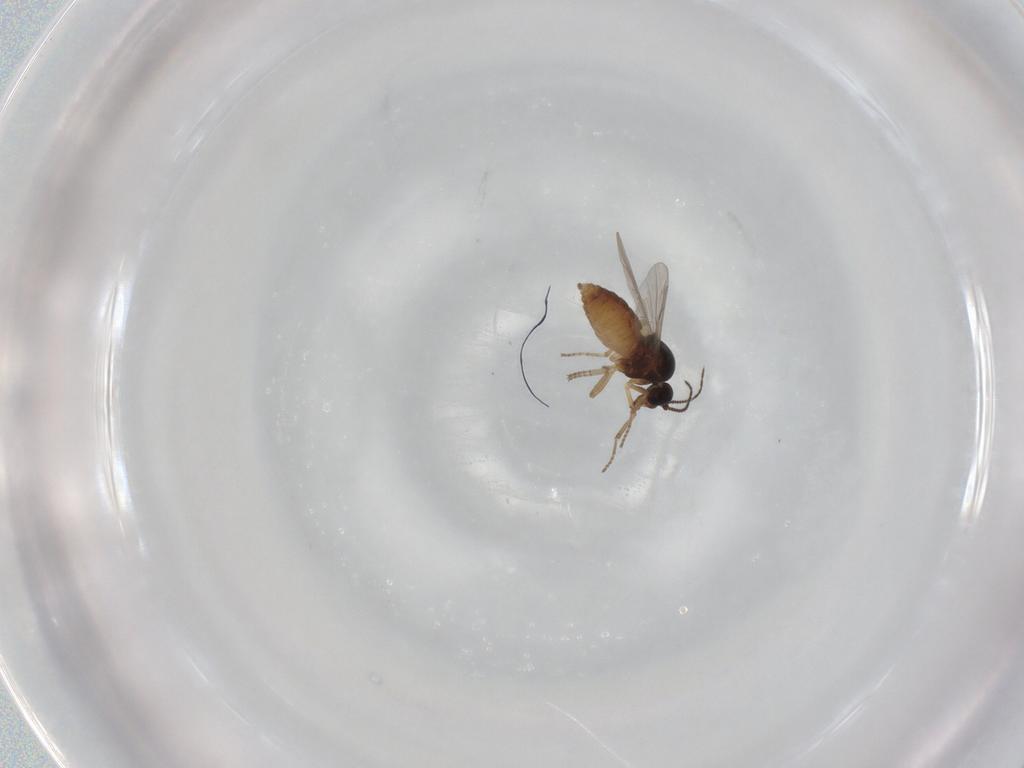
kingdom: Animalia
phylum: Arthropoda
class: Insecta
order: Diptera
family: Ceratopogonidae
